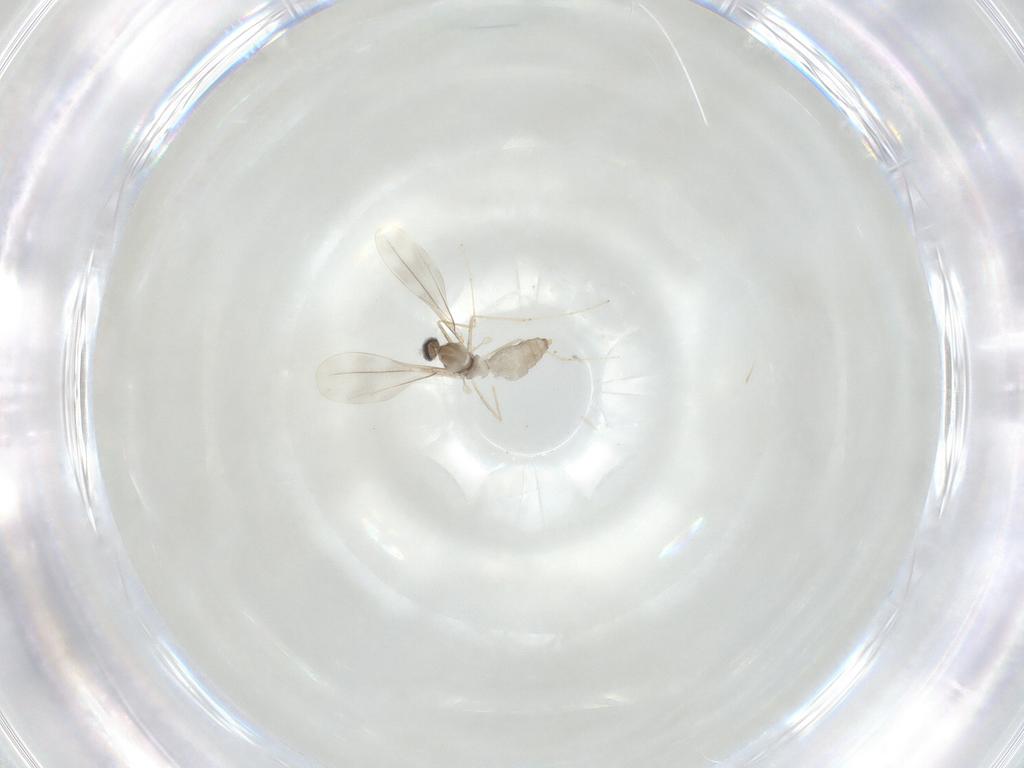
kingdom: Animalia
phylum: Arthropoda
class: Insecta
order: Diptera
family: Cecidomyiidae
